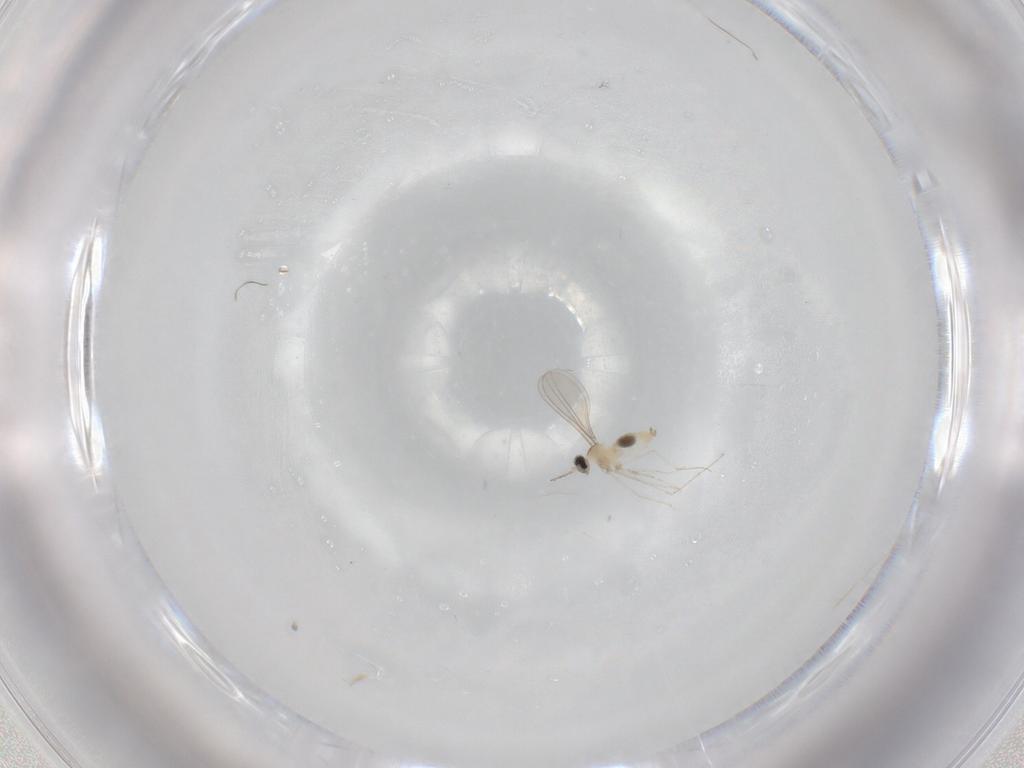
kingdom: Animalia
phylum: Arthropoda
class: Insecta
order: Diptera
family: Cecidomyiidae
